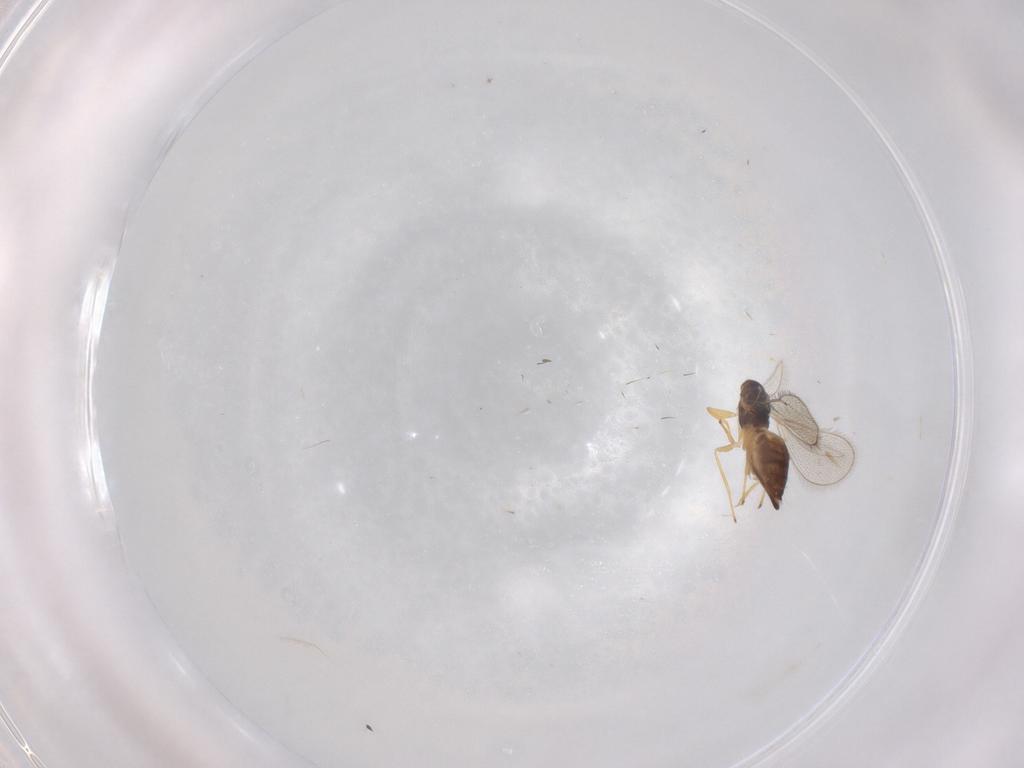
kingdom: Animalia
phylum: Arthropoda
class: Insecta
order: Hymenoptera
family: Eulophidae
